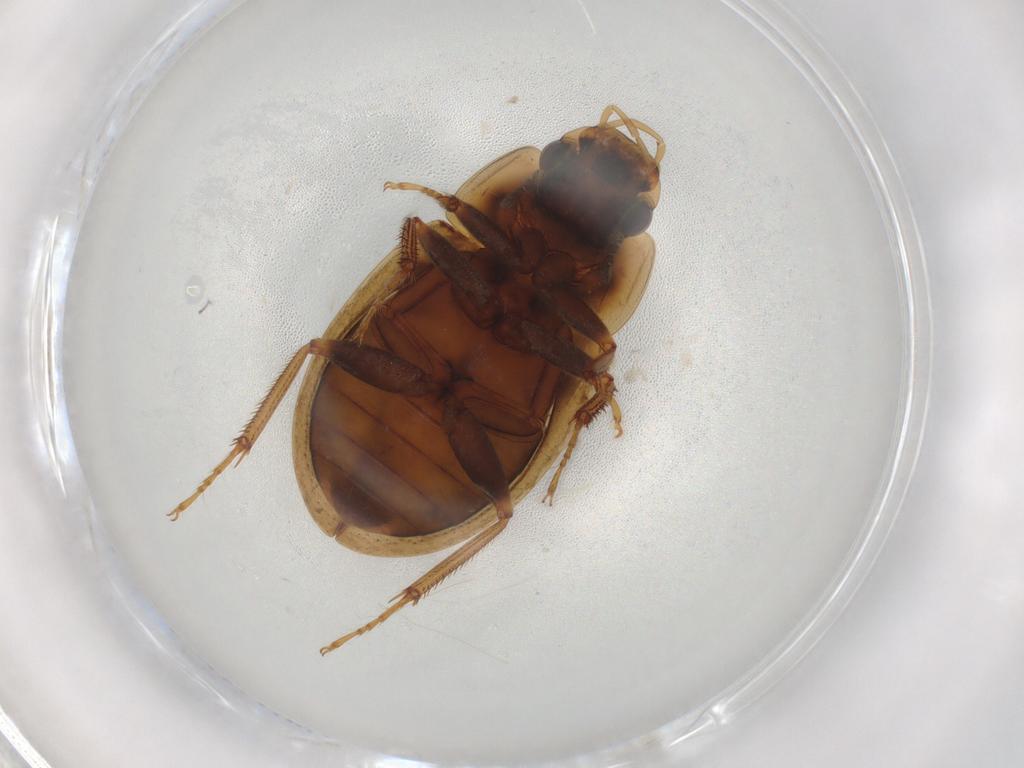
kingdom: Animalia
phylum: Arthropoda
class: Insecta
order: Coleoptera
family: Hydrophilidae
